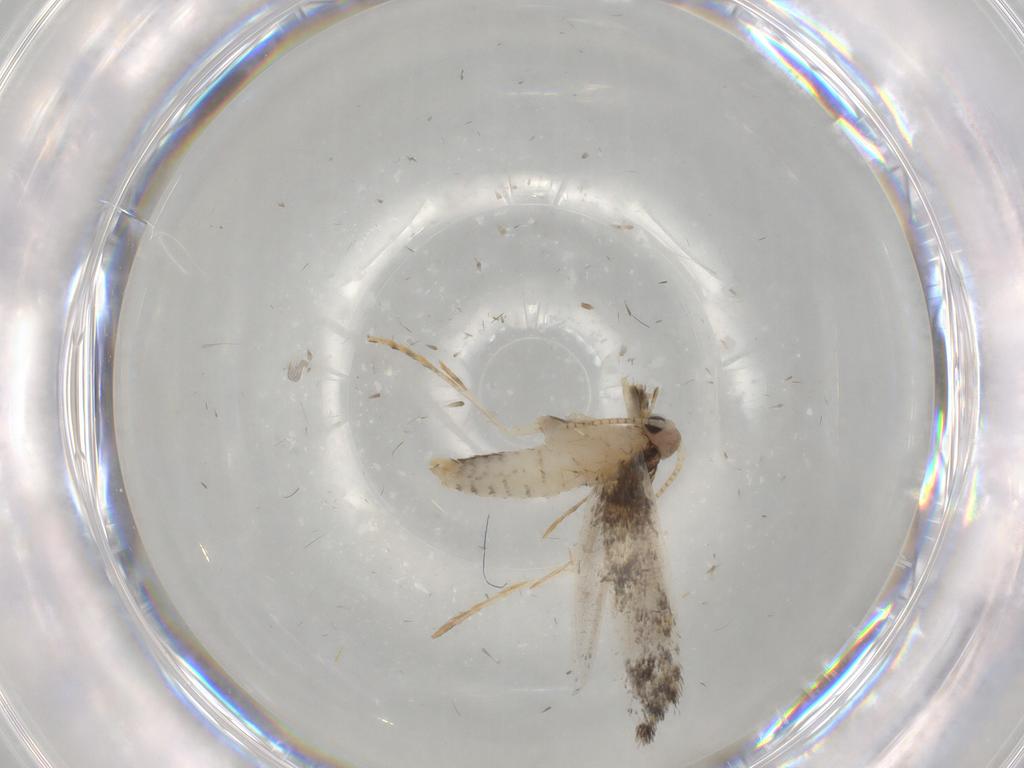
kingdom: Animalia
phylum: Arthropoda
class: Insecta
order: Lepidoptera
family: Tineidae
